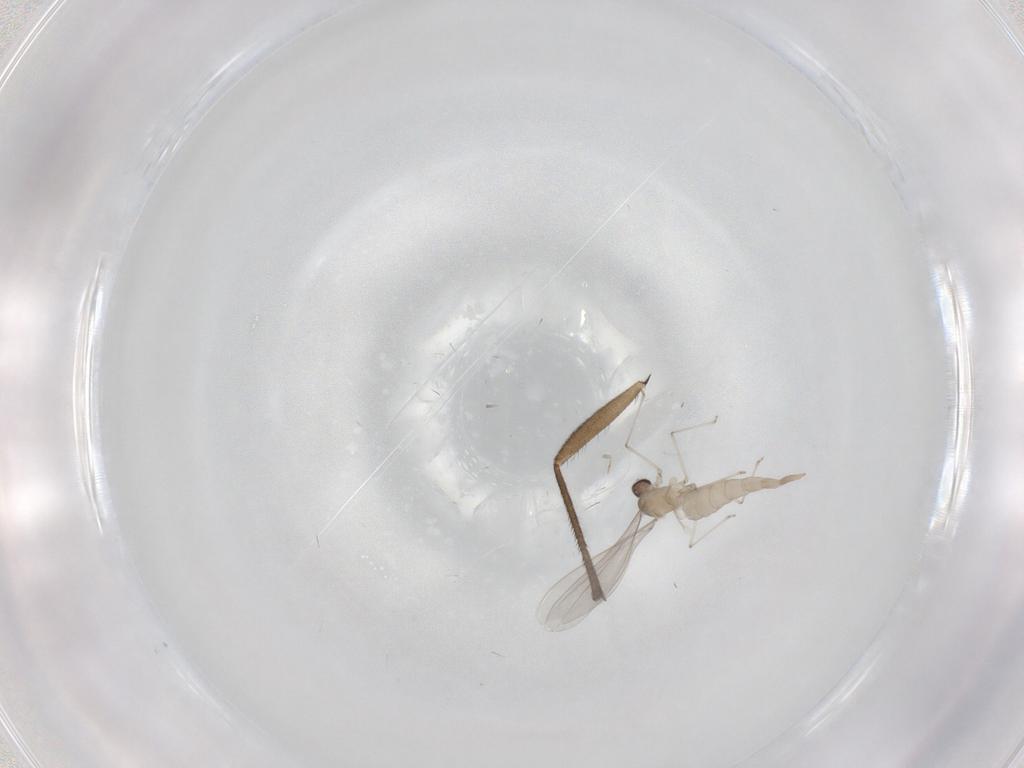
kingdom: Animalia
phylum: Arthropoda
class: Insecta
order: Diptera
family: Cecidomyiidae
